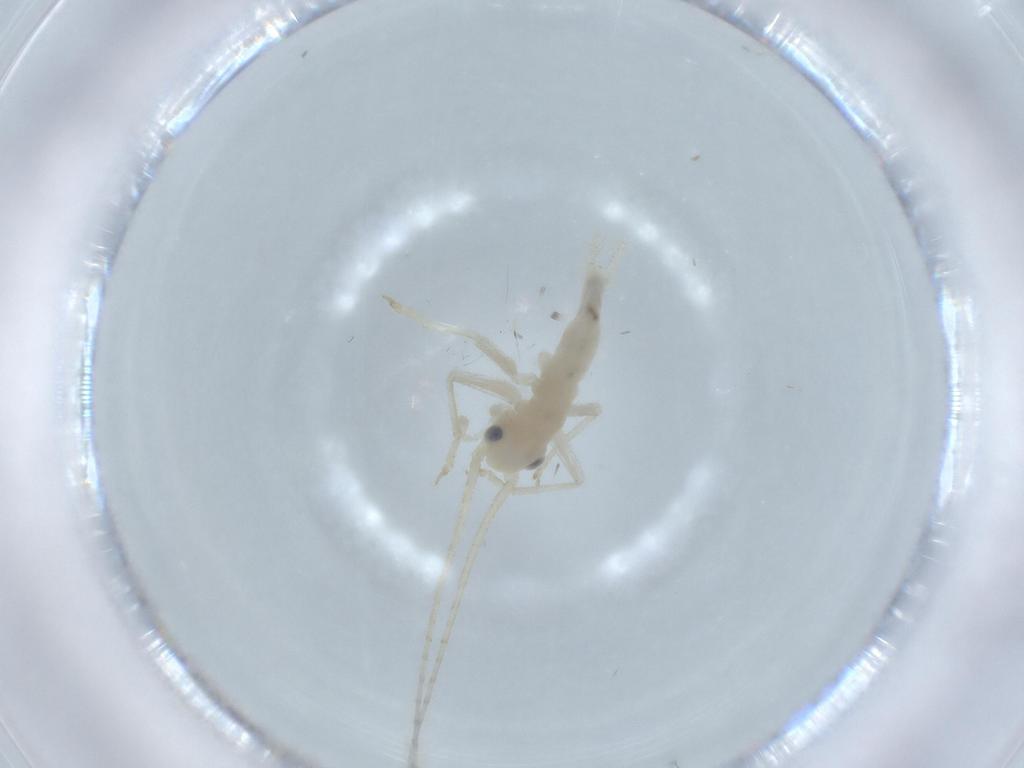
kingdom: Animalia
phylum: Arthropoda
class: Insecta
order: Orthoptera
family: Trigonidiidae
